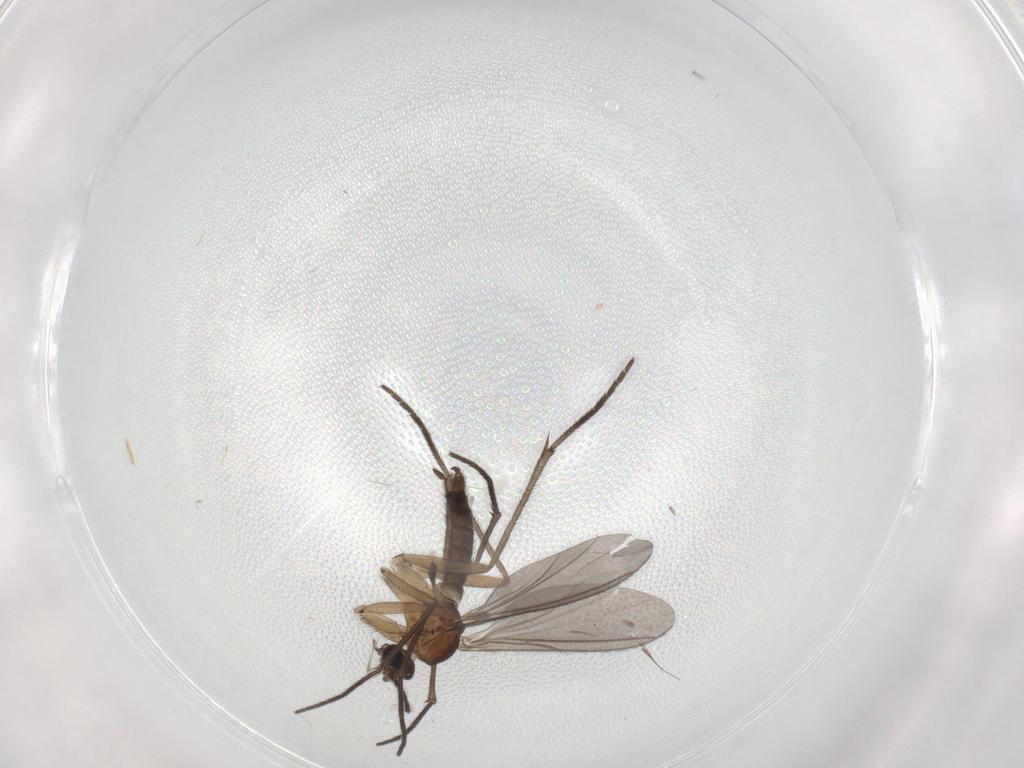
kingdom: Animalia
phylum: Arthropoda
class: Insecta
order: Diptera
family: Sciaridae
